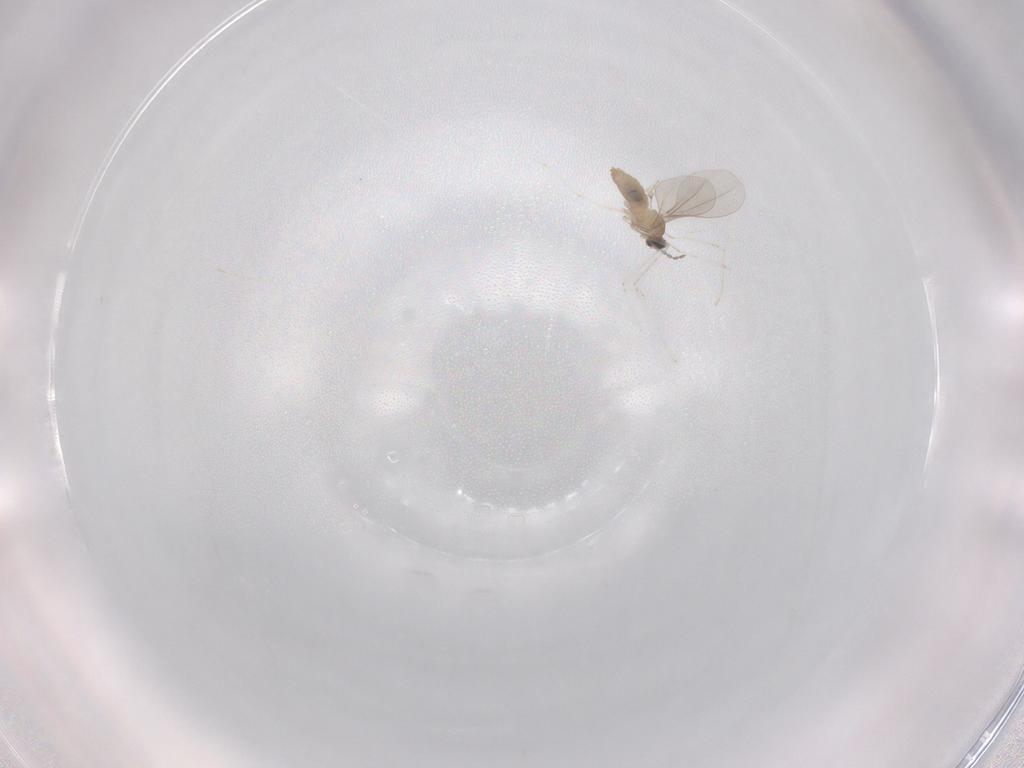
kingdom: Animalia
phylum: Arthropoda
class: Insecta
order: Diptera
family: Cecidomyiidae
